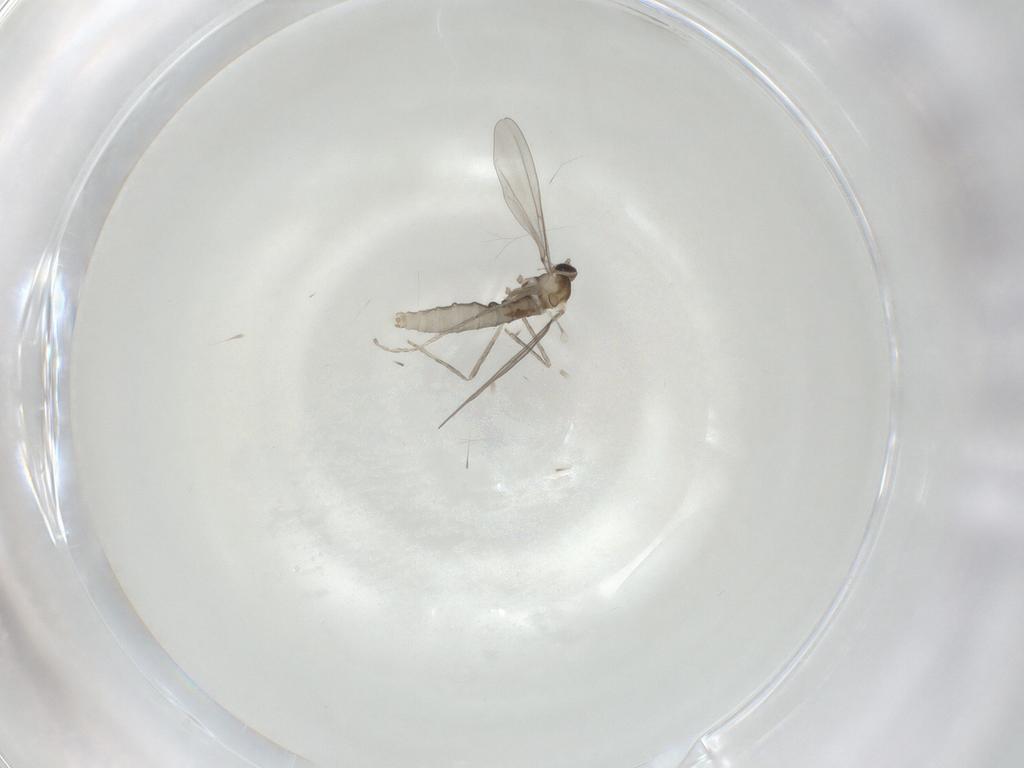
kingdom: Animalia
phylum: Arthropoda
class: Insecta
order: Diptera
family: Cecidomyiidae
